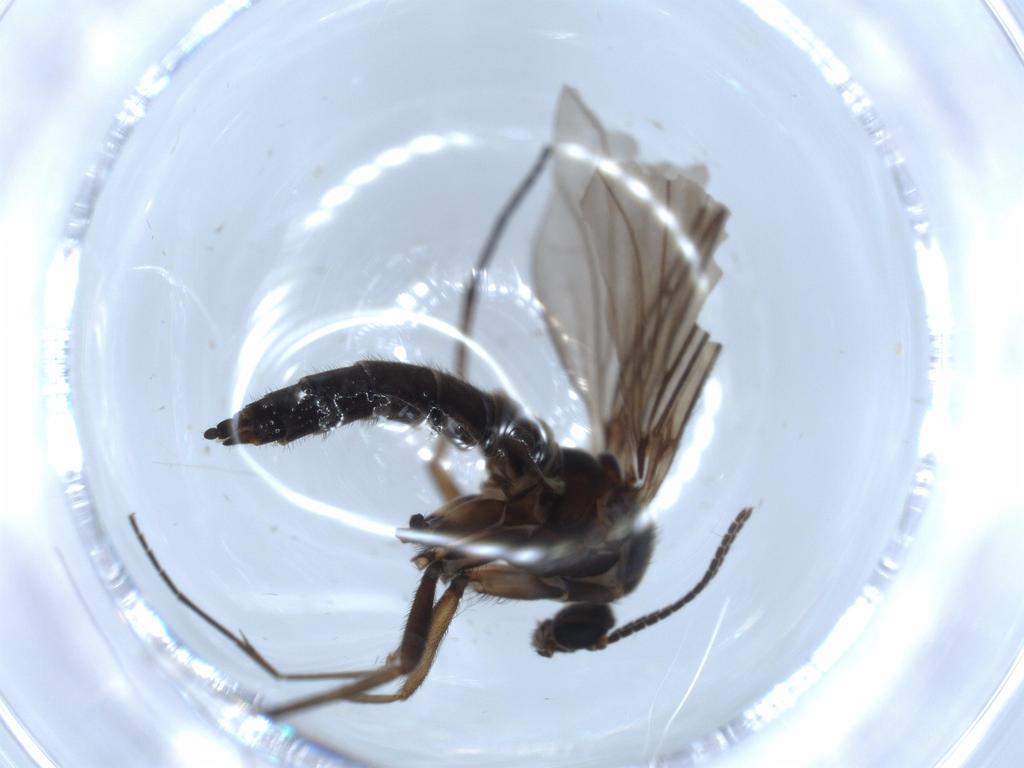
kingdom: Animalia
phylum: Arthropoda
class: Insecta
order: Diptera
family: Sciaridae
